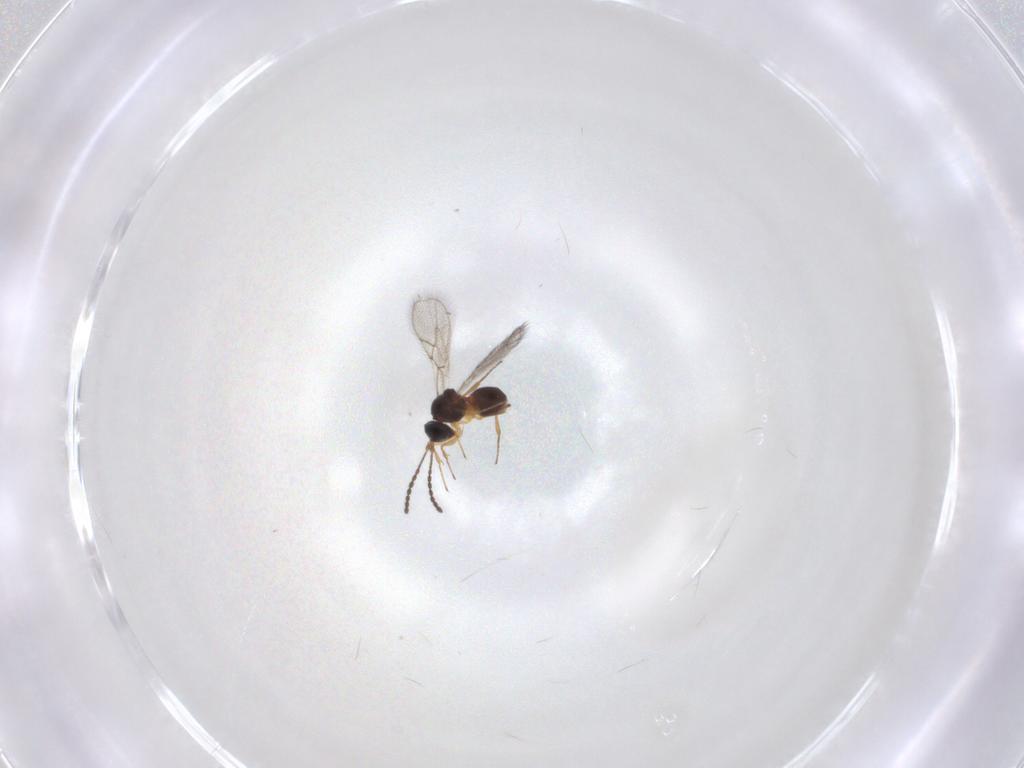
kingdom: Animalia
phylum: Arthropoda
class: Insecta
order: Hymenoptera
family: Figitidae
